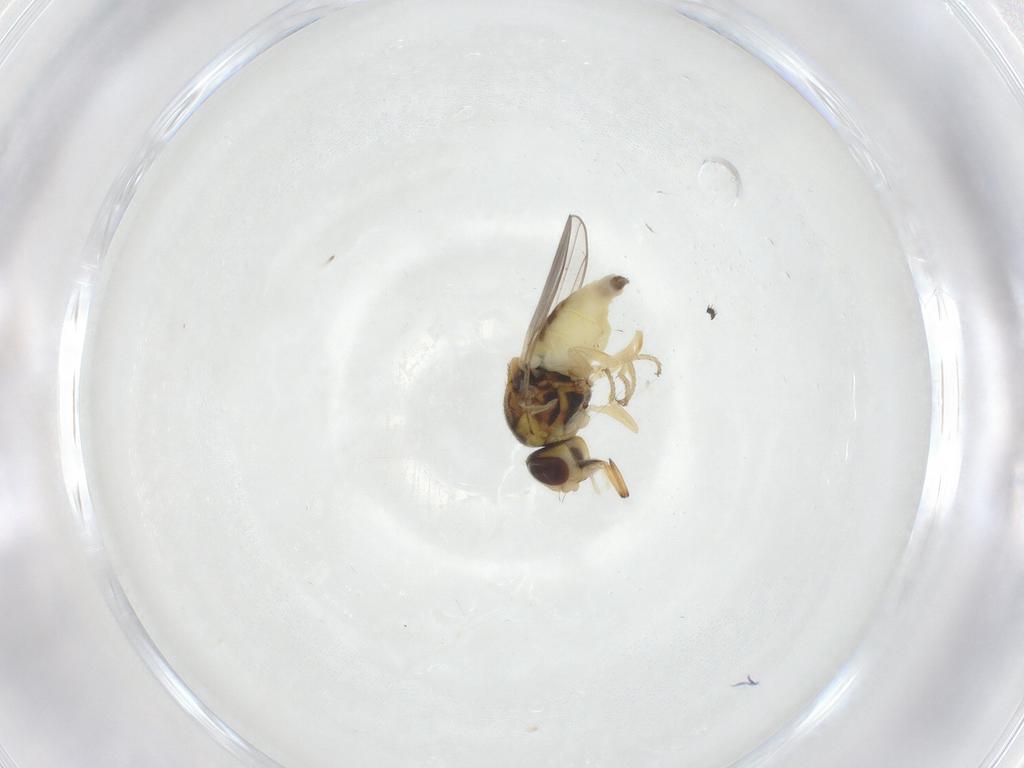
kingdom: Animalia
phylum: Arthropoda
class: Insecta
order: Diptera
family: Chloropidae
